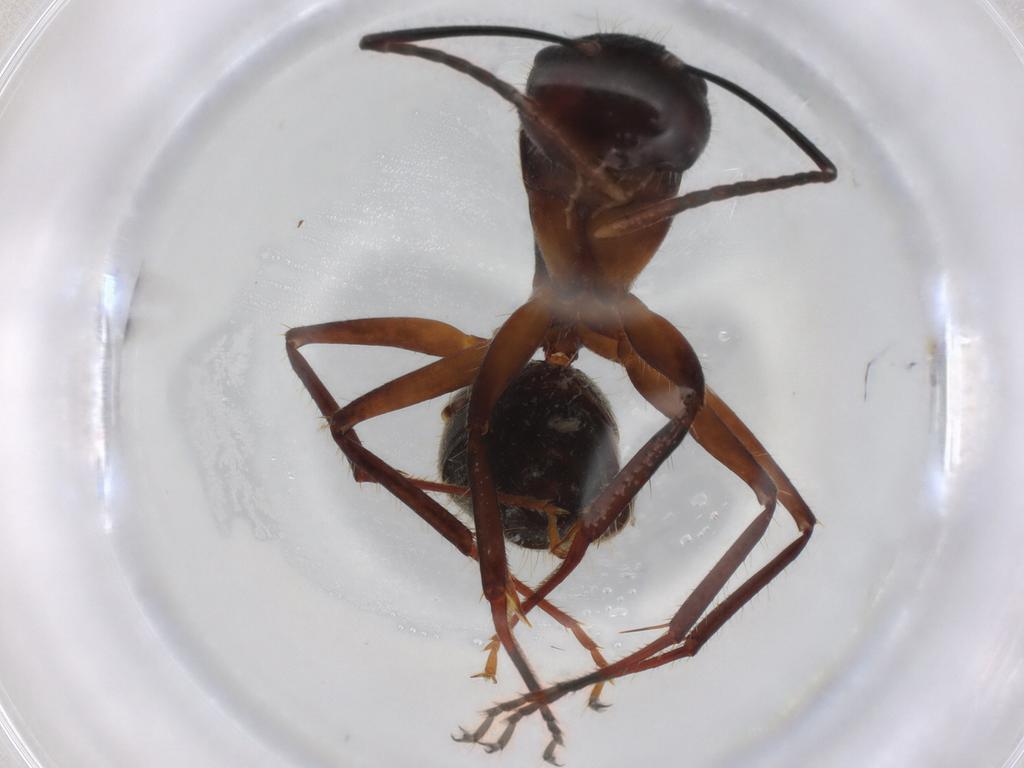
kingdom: Animalia
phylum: Arthropoda
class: Insecta
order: Hymenoptera
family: Formicidae
